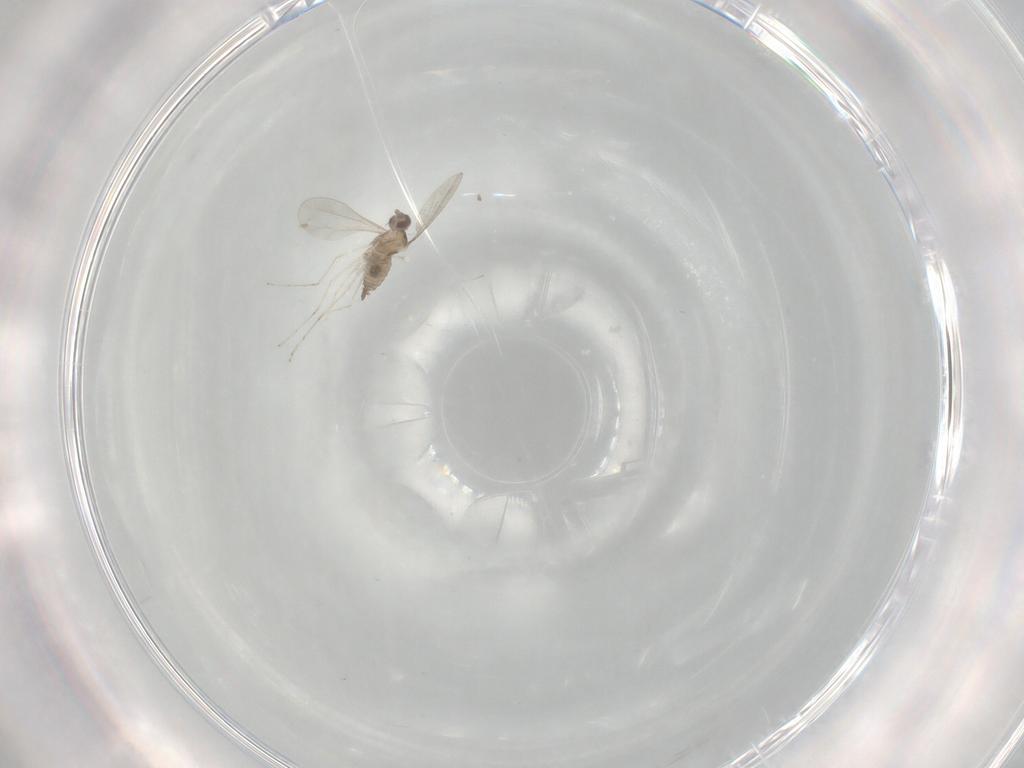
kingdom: Animalia
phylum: Arthropoda
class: Insecta
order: Diptera
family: Cecidomyiidae
